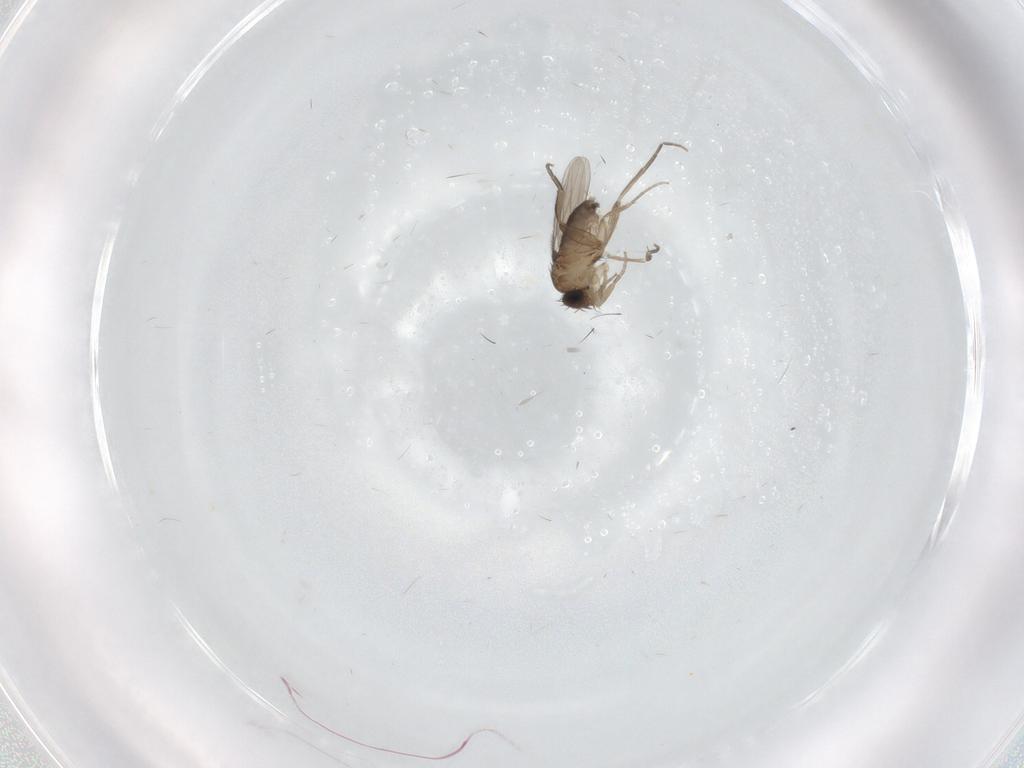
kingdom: Animalia
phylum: Arthropoda
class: Insecta
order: Diptera
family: Phoridae
